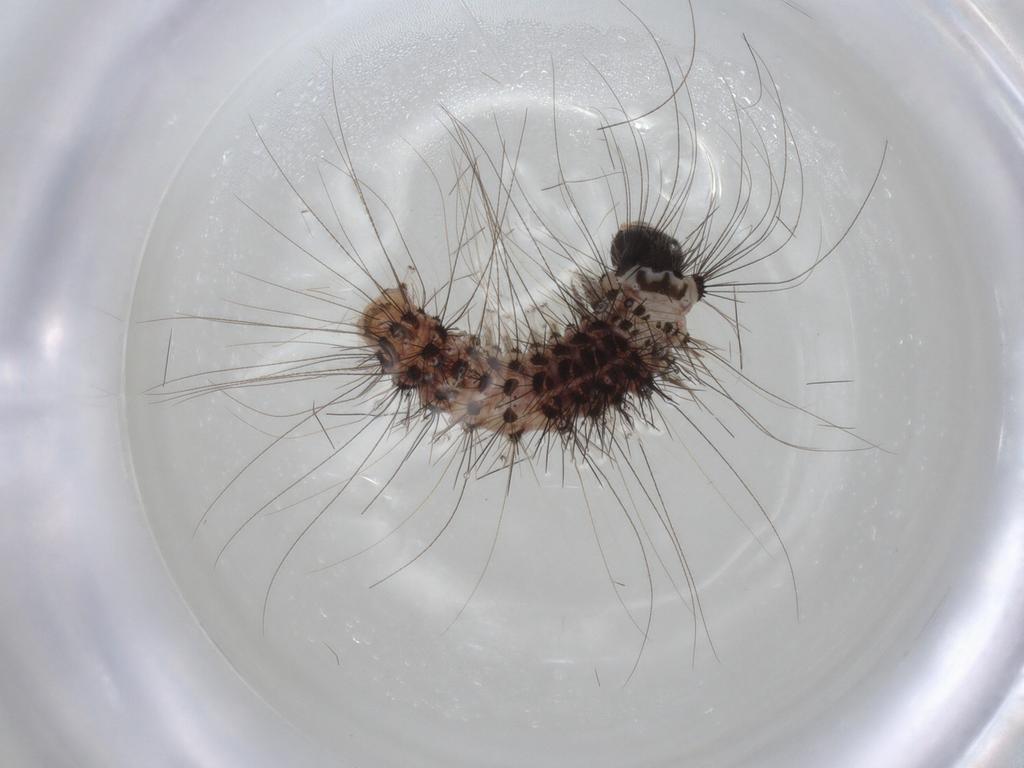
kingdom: Animalia
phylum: Arthropoda
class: Insecta
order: Lepidoptera
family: Erebidae
